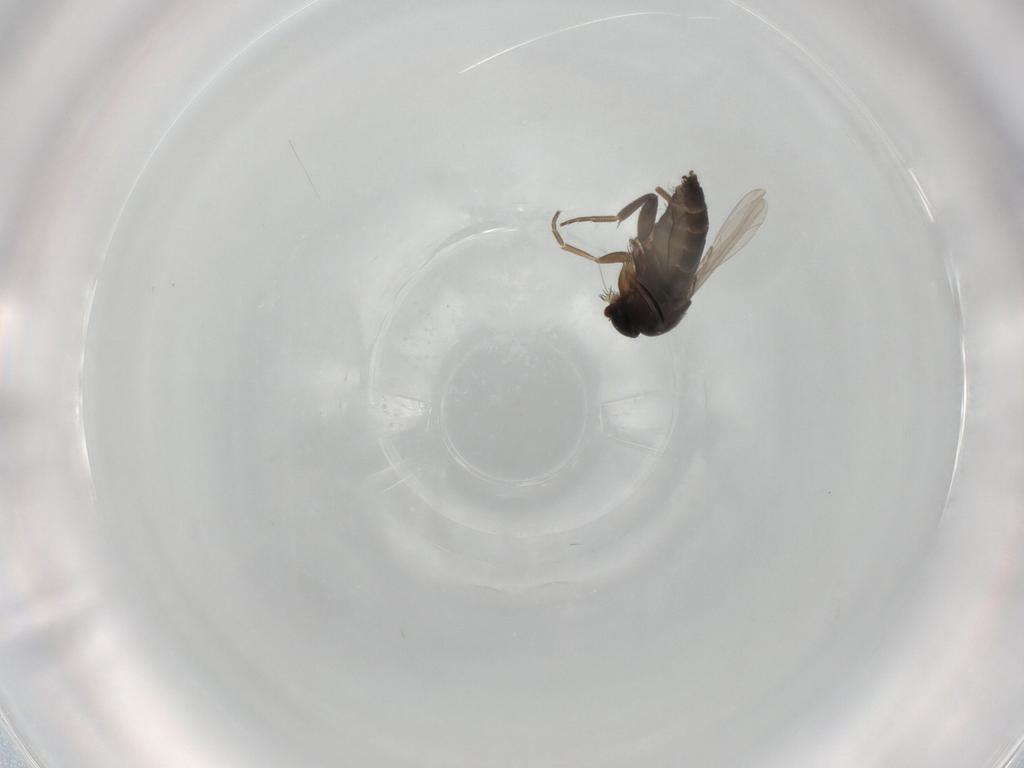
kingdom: Animalia
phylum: Arthropoda
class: Insecta
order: Diptera
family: Phoridae
